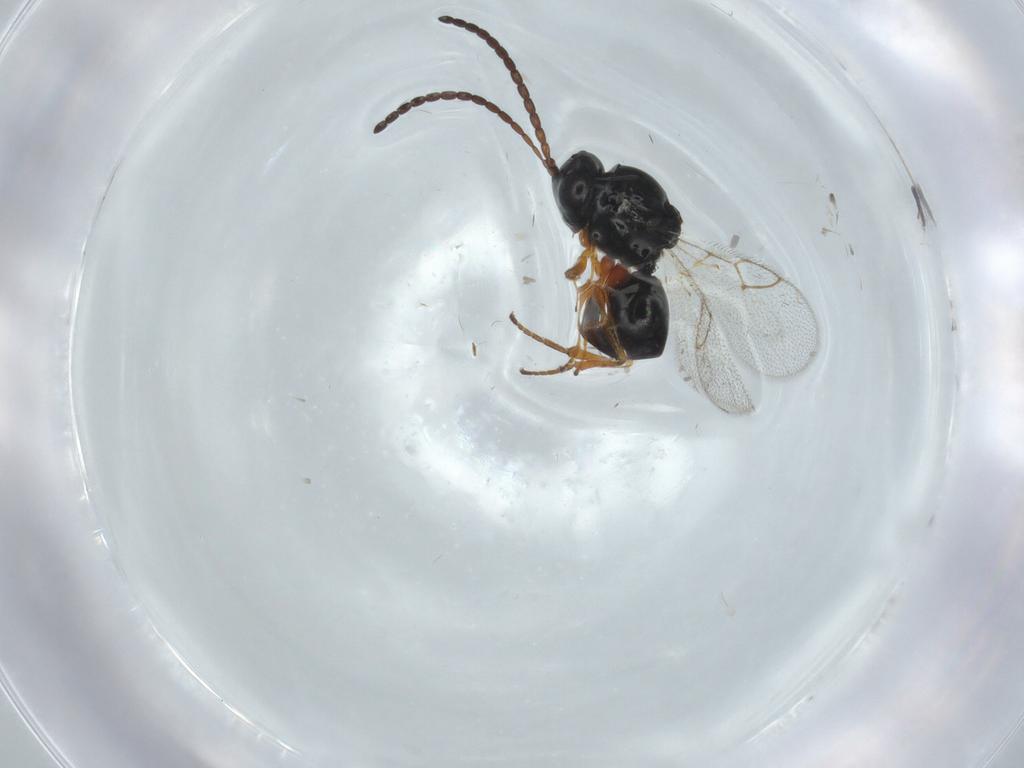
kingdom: Animalia
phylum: Arthropoda
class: Insecta
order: Hymenoptera
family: Figitidae
